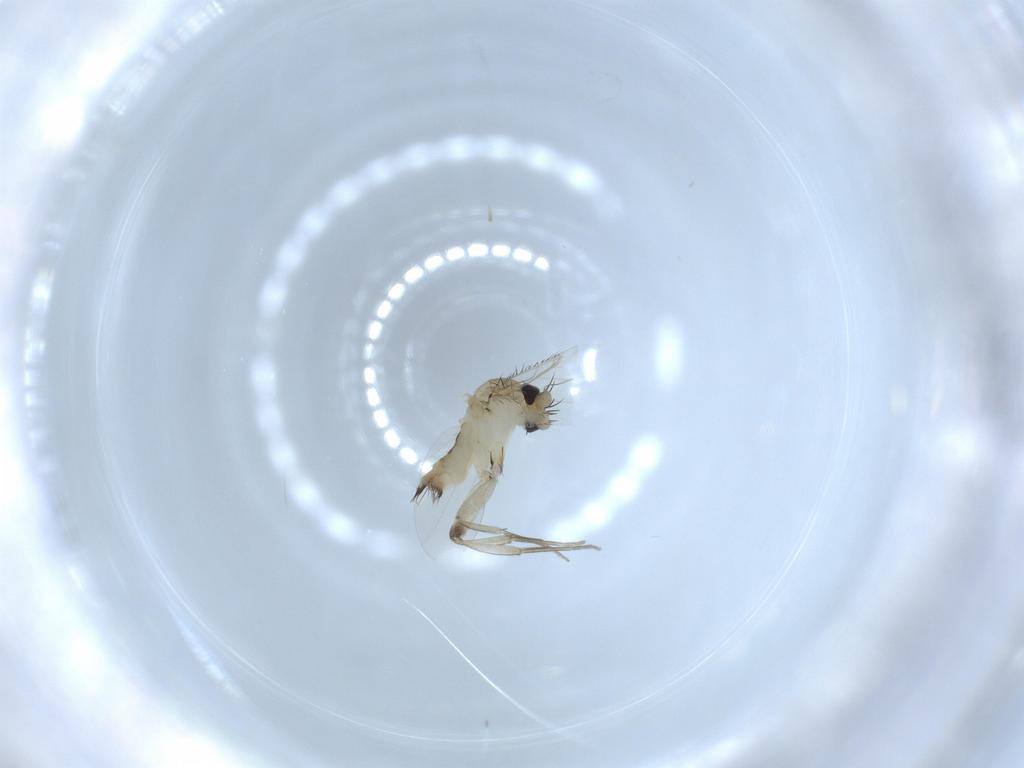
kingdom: Animalia
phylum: Arthropoda
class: Insecta
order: Diptera
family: Phoridae
